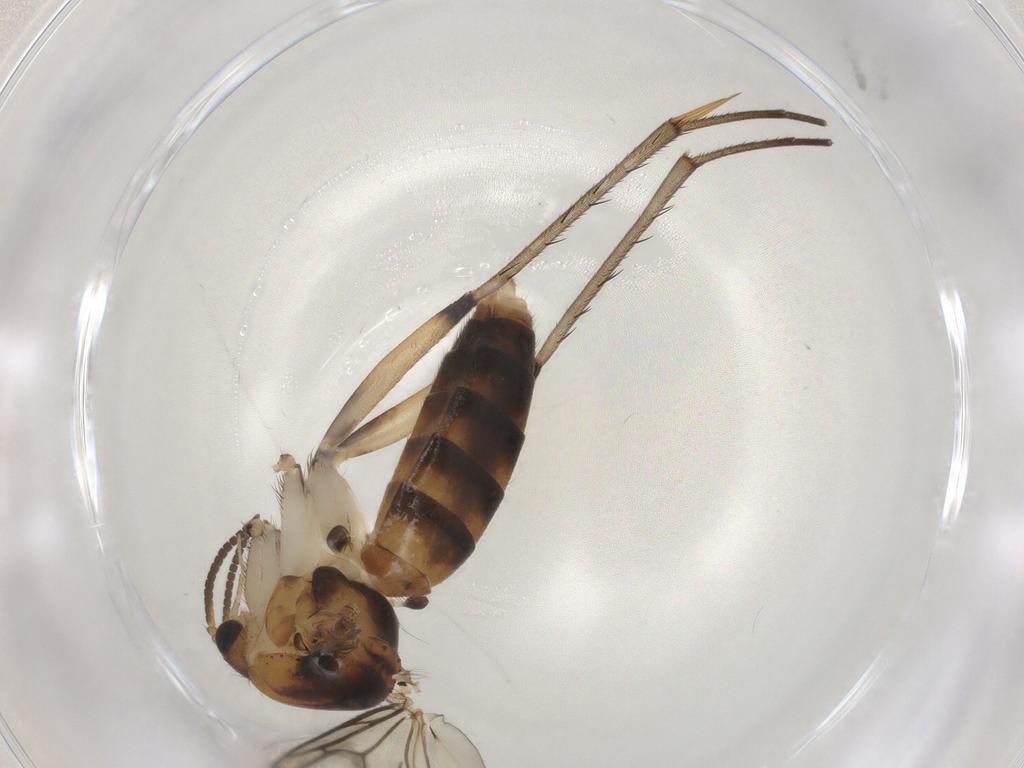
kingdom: Animalia
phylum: Arthropoda
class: Insecta
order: Diptera
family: Mycetophilidae
